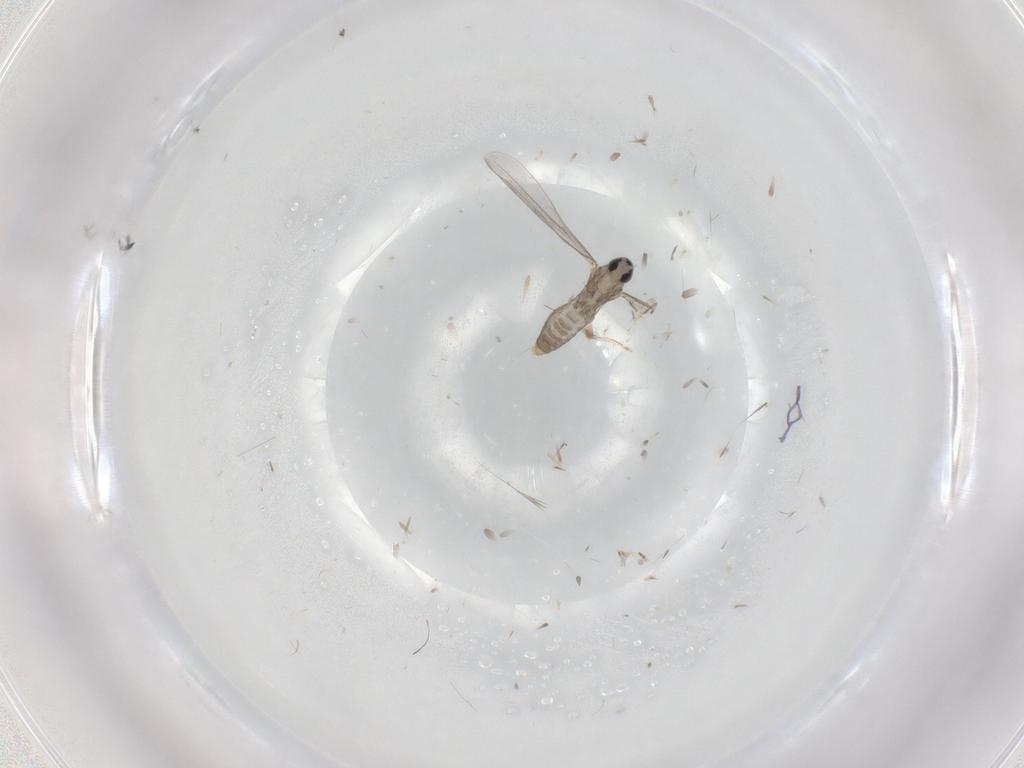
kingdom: Animalia
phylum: Arthropoda
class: Insecta
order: Diptera
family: Cecidomyiidae
